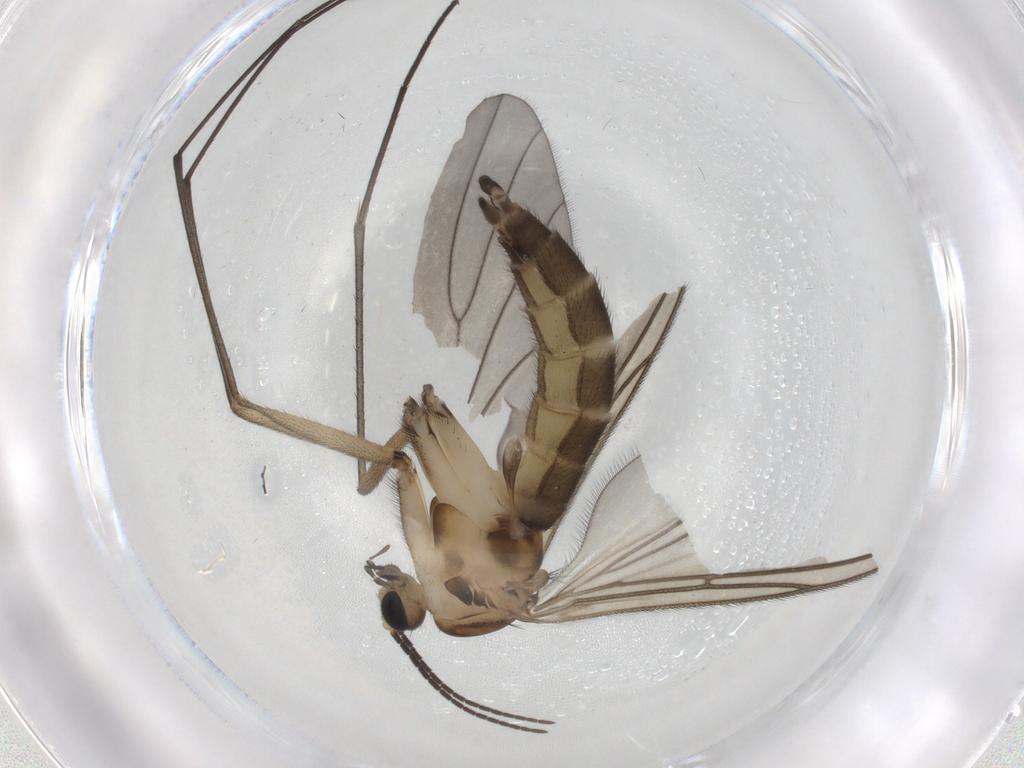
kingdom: Animalia
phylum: Arthropoda
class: Insecta
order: Diptera
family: Sciaridae
